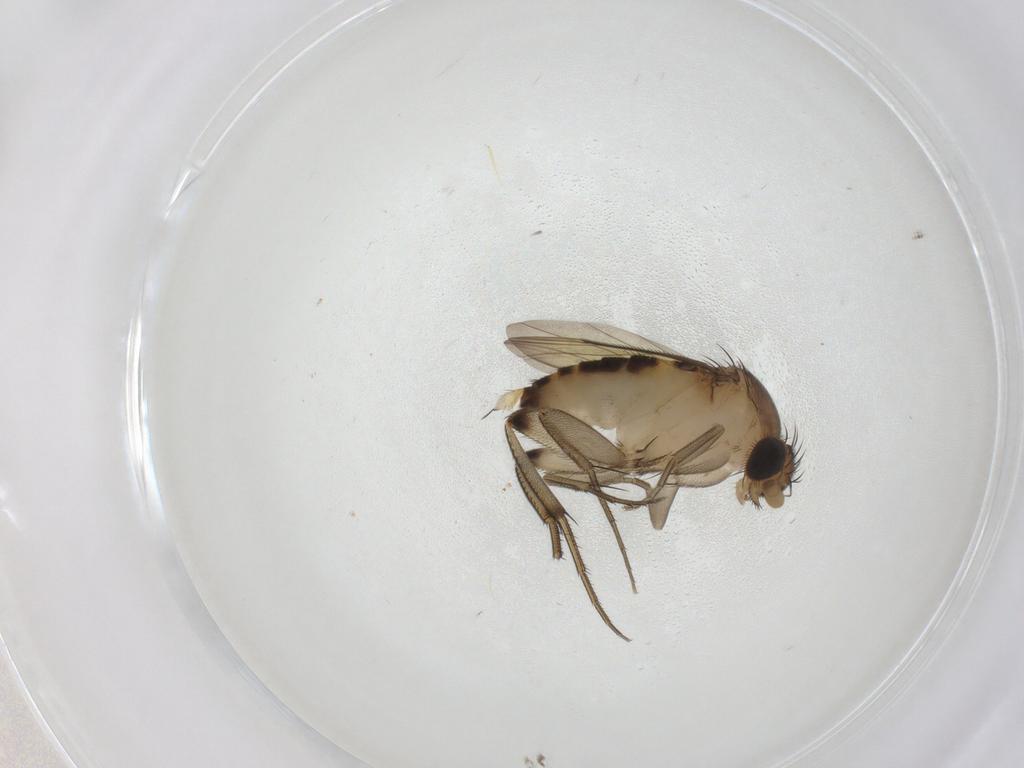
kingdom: Animalia
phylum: Arthropoda
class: Insecta
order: Diptera
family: Phoridae
